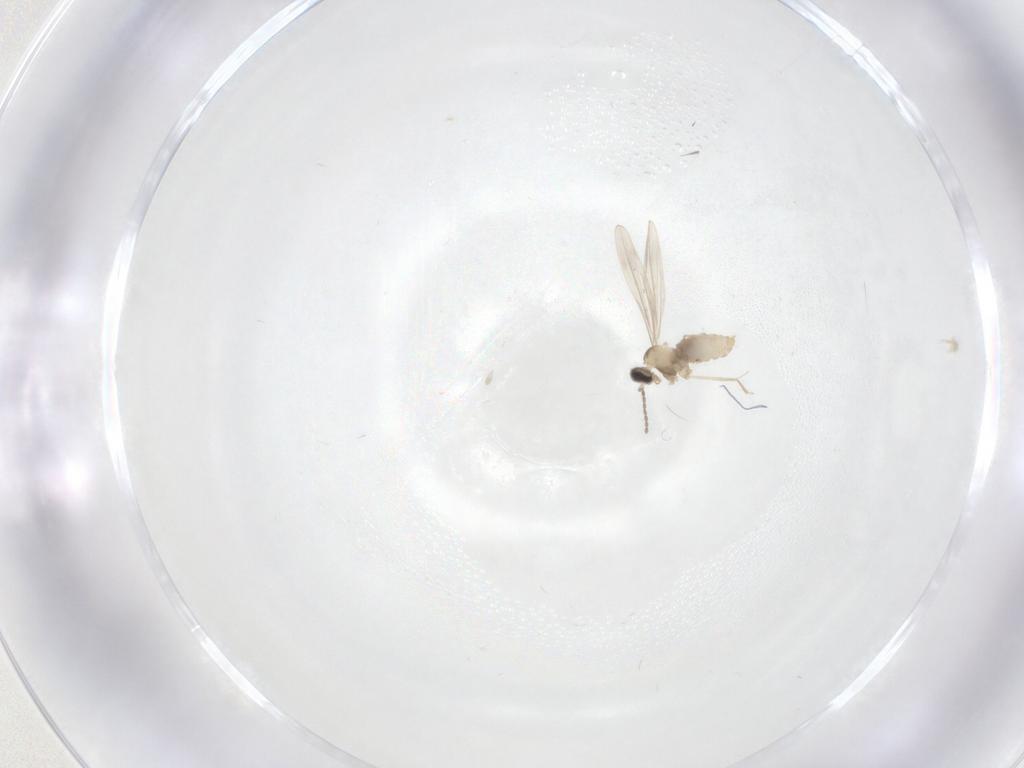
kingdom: Animalia
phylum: Arthropoda
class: Insecta
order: Diptera
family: Cecidomyiidae
